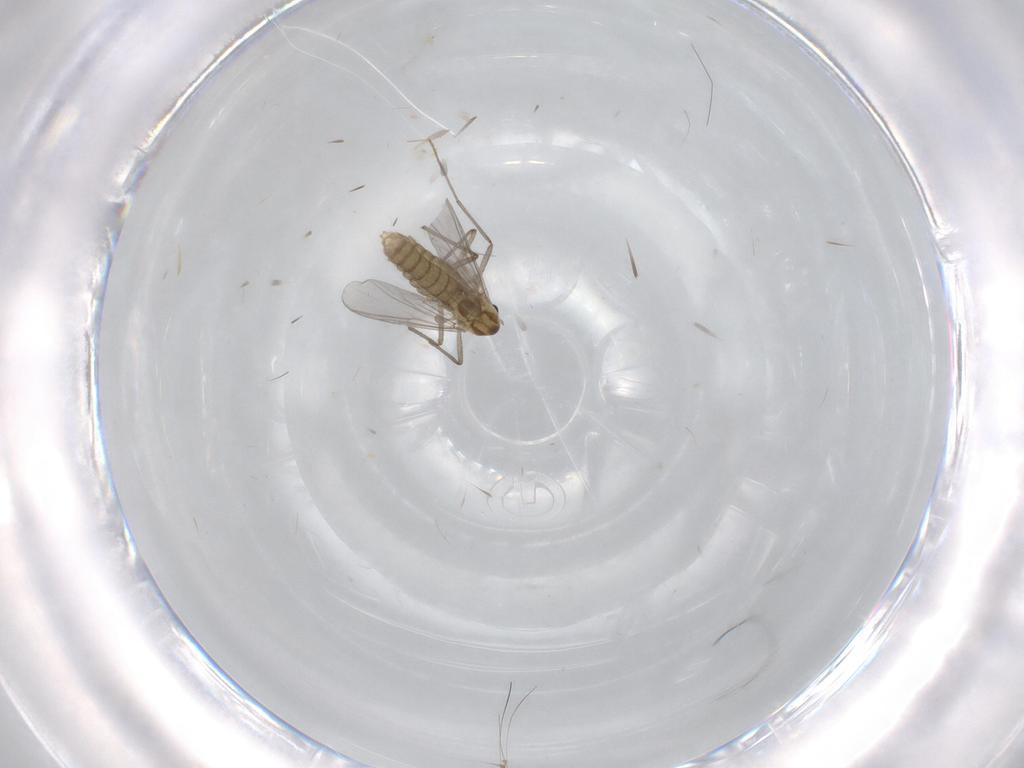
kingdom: Animalia
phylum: Arthropoda
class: Insecta
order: Diptera
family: Chironomidae
